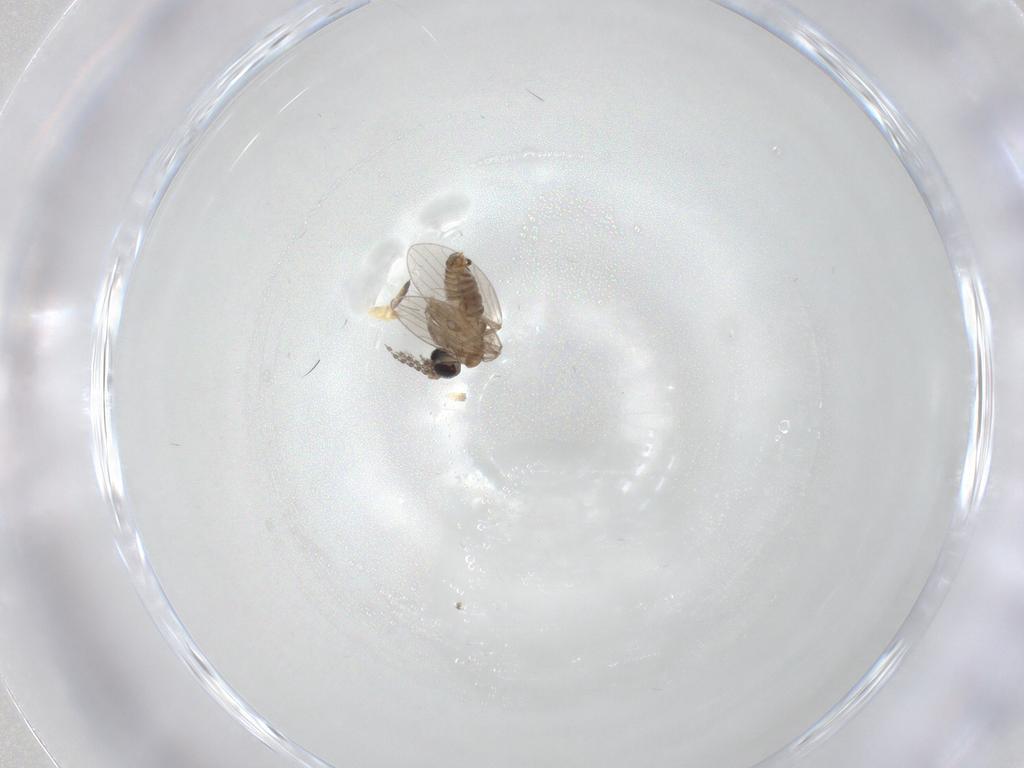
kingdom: Animalia
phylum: Arthropoda
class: Insecta
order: Diptera
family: Chironomidae
